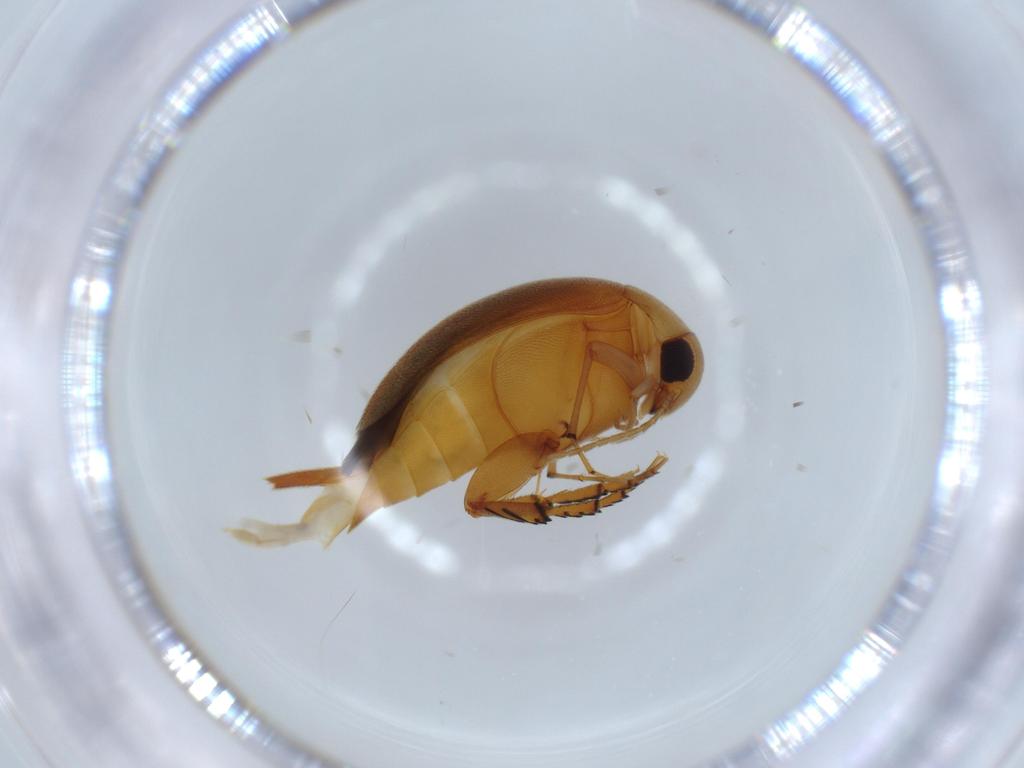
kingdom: Animalia
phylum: Arthropoda
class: Insecta
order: Coleoptera
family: Mordellidae
